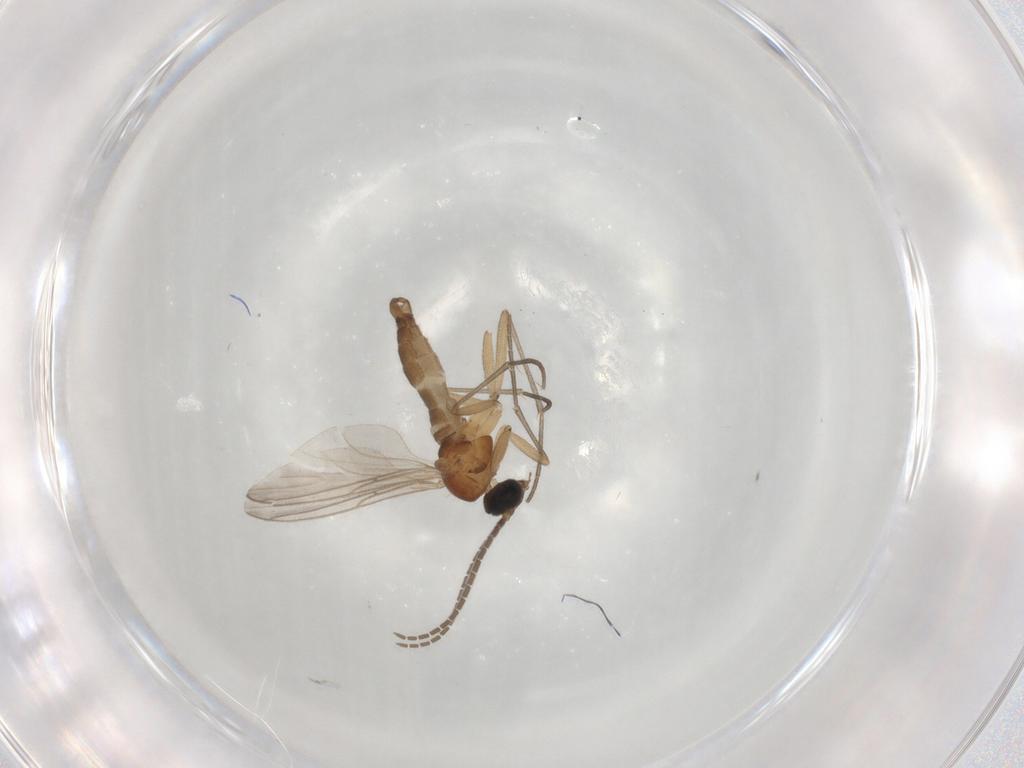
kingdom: Animalia
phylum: Arthropoda
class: Insecta
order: Diptera
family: Sciaridae
